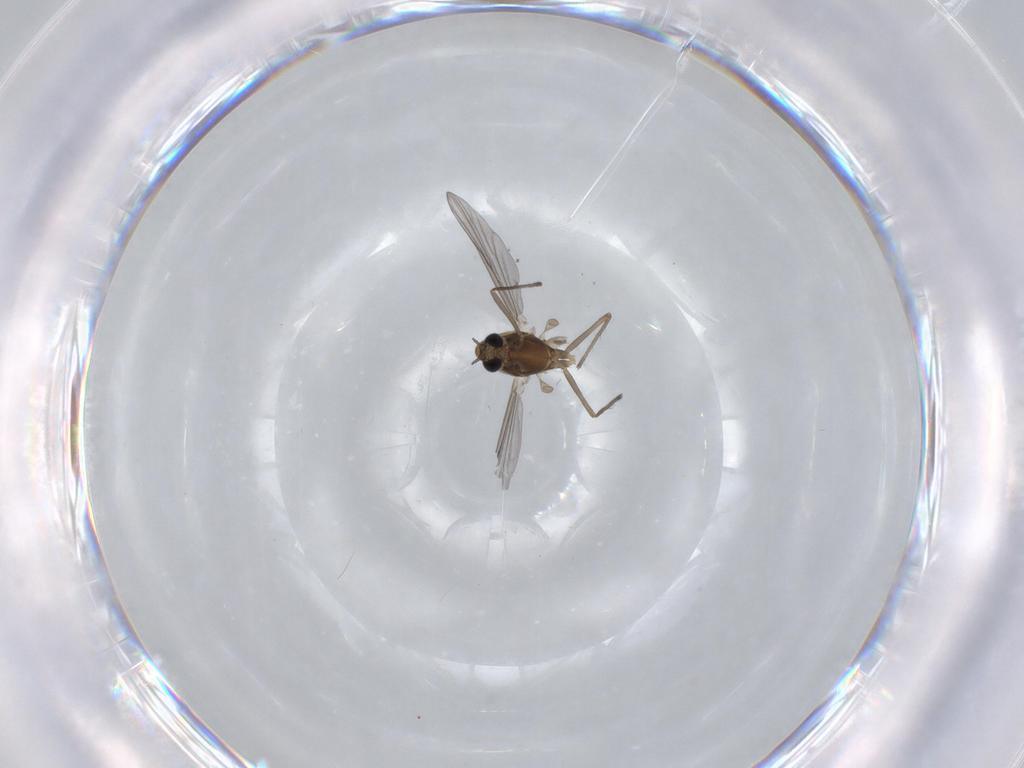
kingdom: Animalia
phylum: Arthropoda
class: Insecta
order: Diptera
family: Chironomidae
